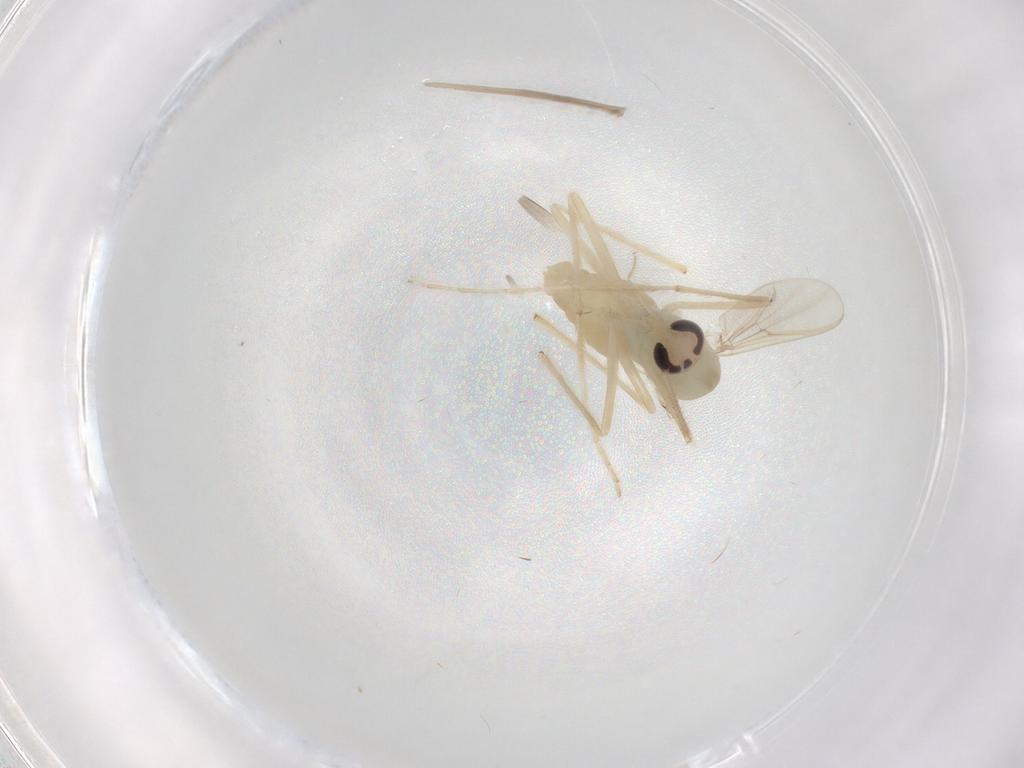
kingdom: Animalia
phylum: Arthropoda
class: Insecta
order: Diptera
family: Chironomidae
